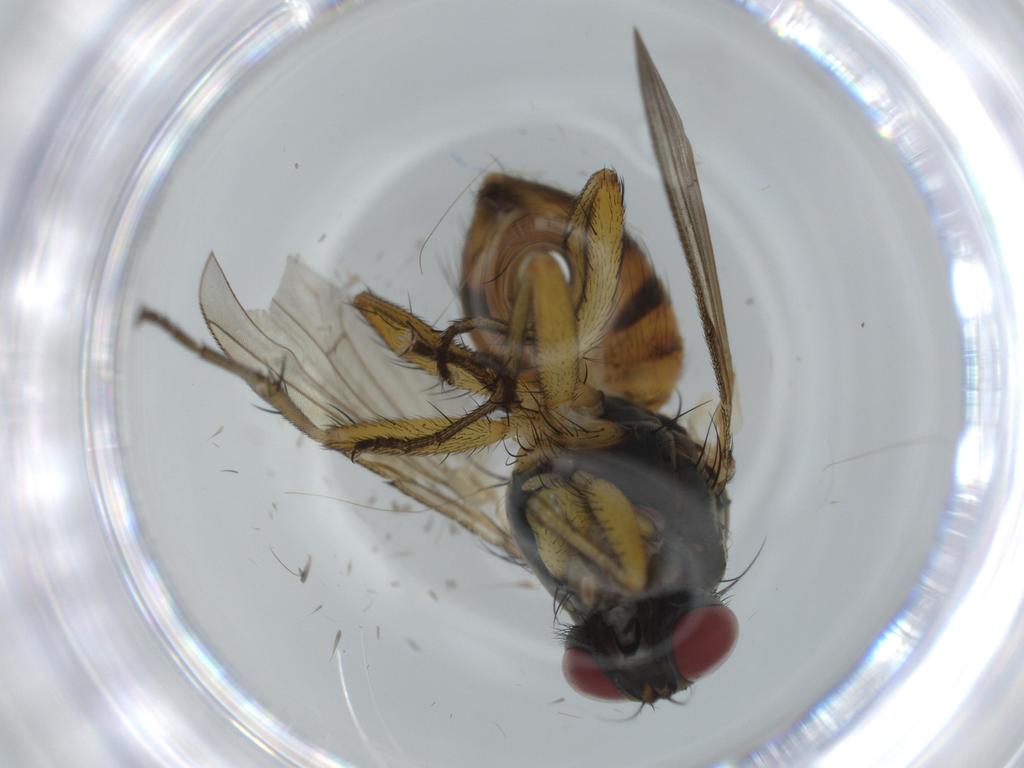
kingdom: Animalia
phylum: Arthropoda
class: Insecta
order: Diptera
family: Muscidae
